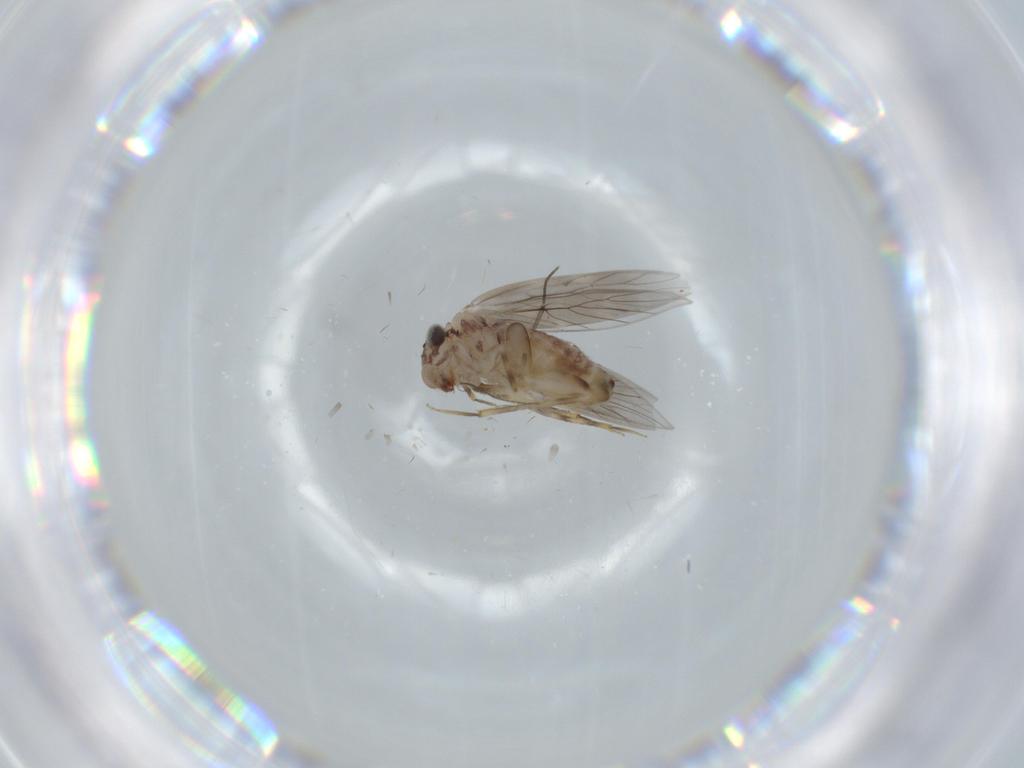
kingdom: Animalia
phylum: Arthropoda
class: Insecta
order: Psocodea
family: Lepidopsocidae
